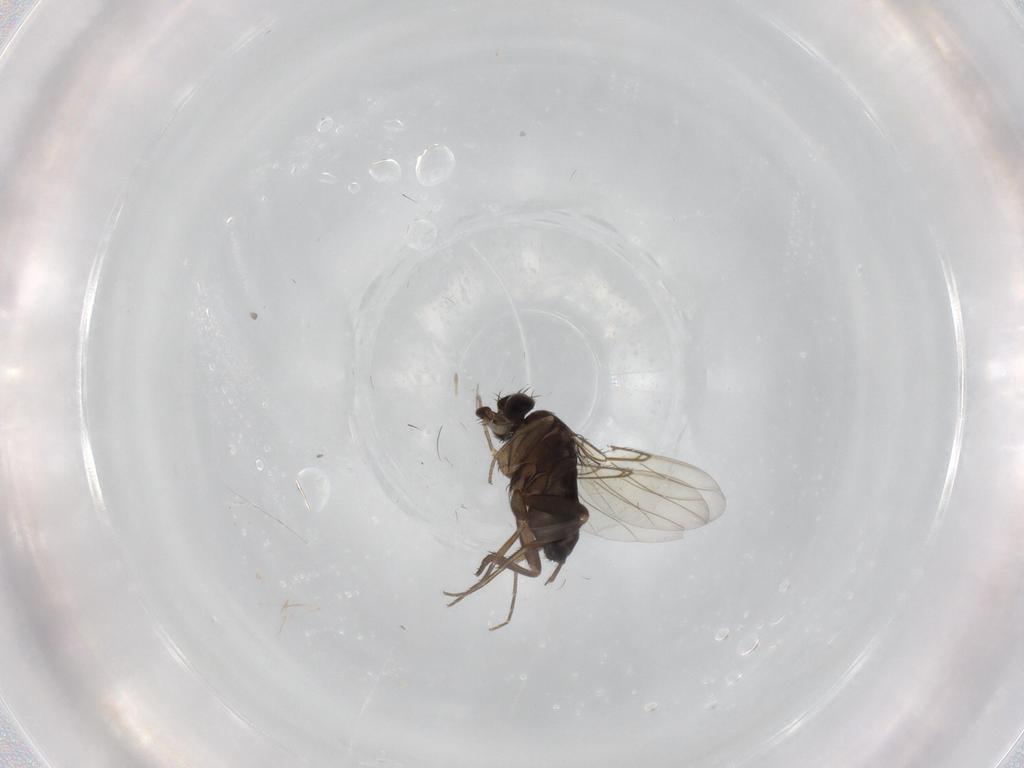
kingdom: Animalia
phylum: Arthropoda
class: Insecta
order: Diptera
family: Phoridae
